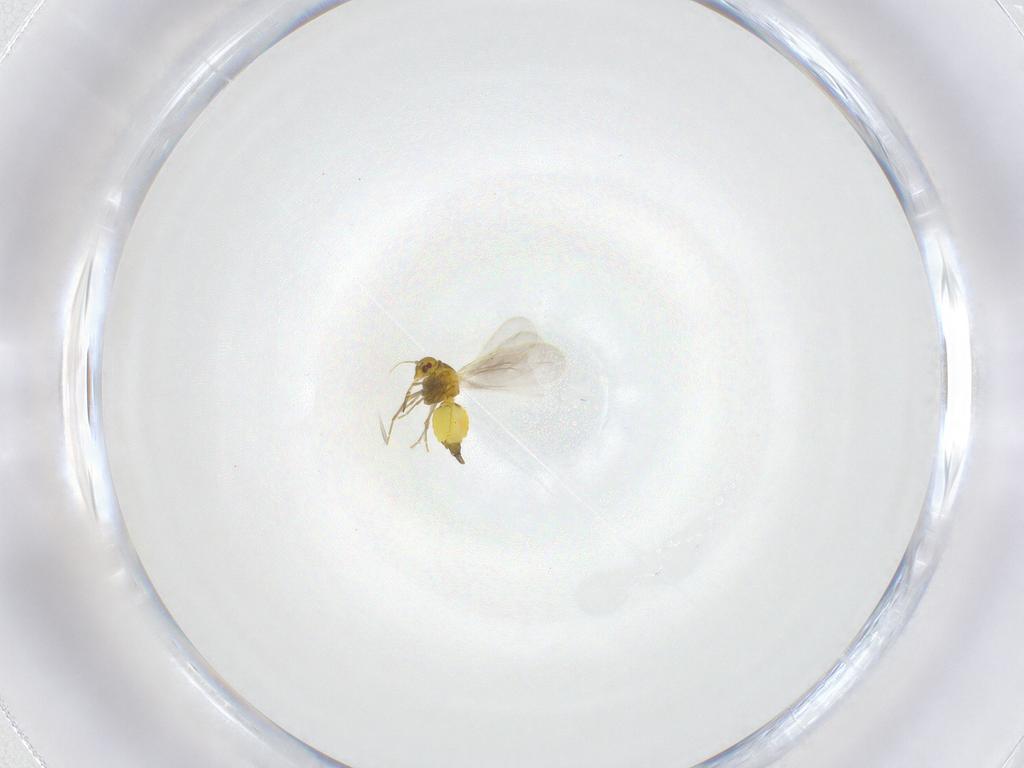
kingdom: Animalia
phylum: Arthropoda
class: Insecta
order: Hemiptera
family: Aleyrodidae
